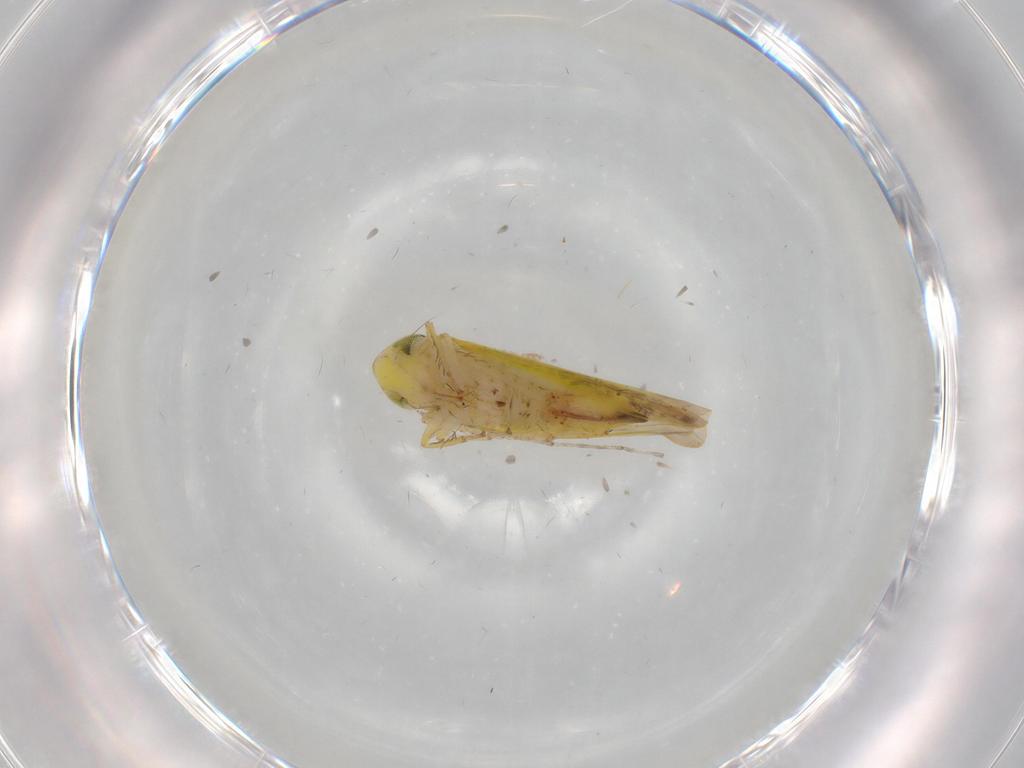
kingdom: Animalia
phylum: Arthropoda
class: Insecta
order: Hemiptera
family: Cicadellidae
